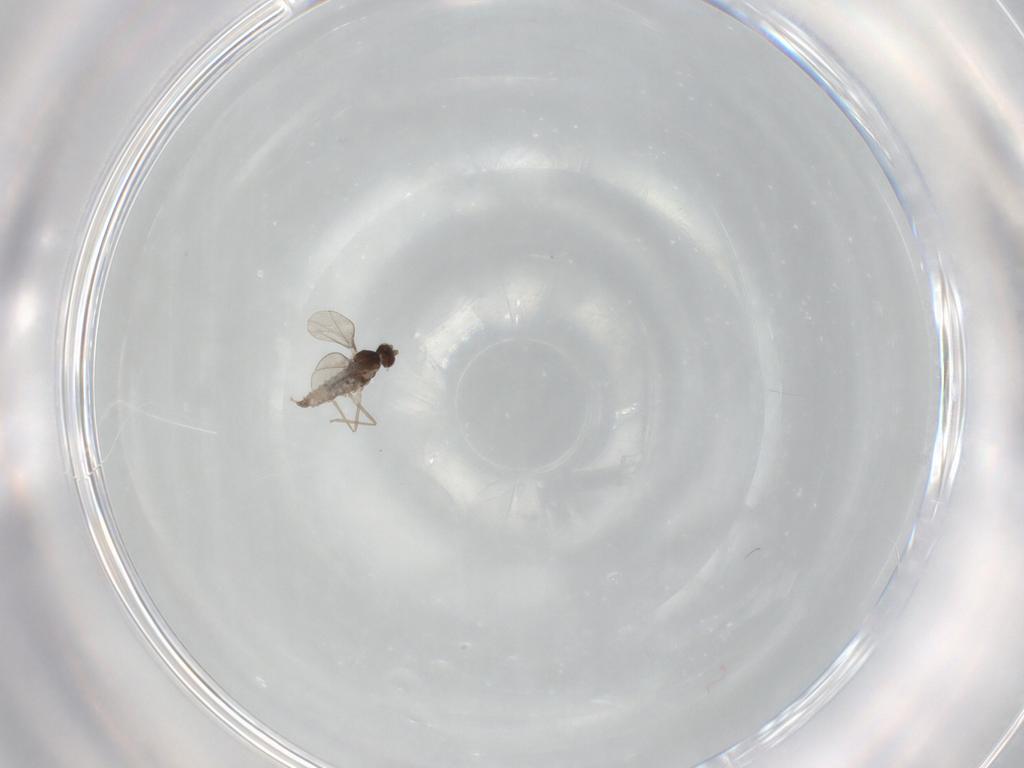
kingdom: Animalia
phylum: Arthropoda
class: Insecta
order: Diptera
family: Cecidomyiidae
